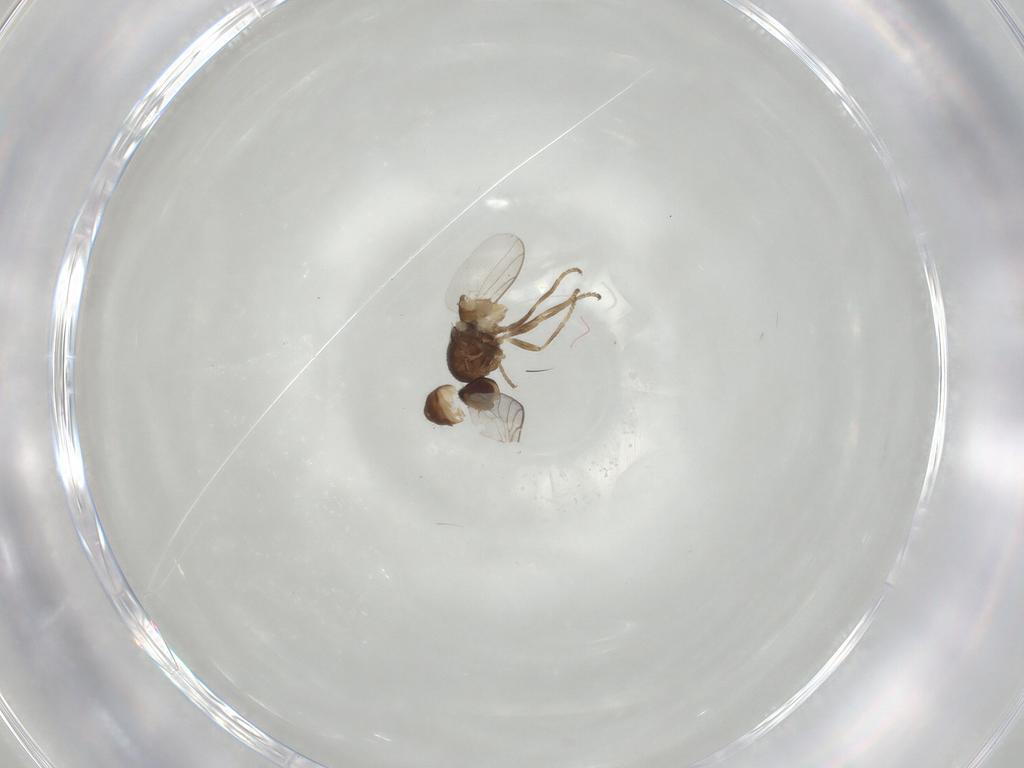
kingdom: Animalia
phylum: Arthropoda
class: Insecta
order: Diptera
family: Chloropidae
